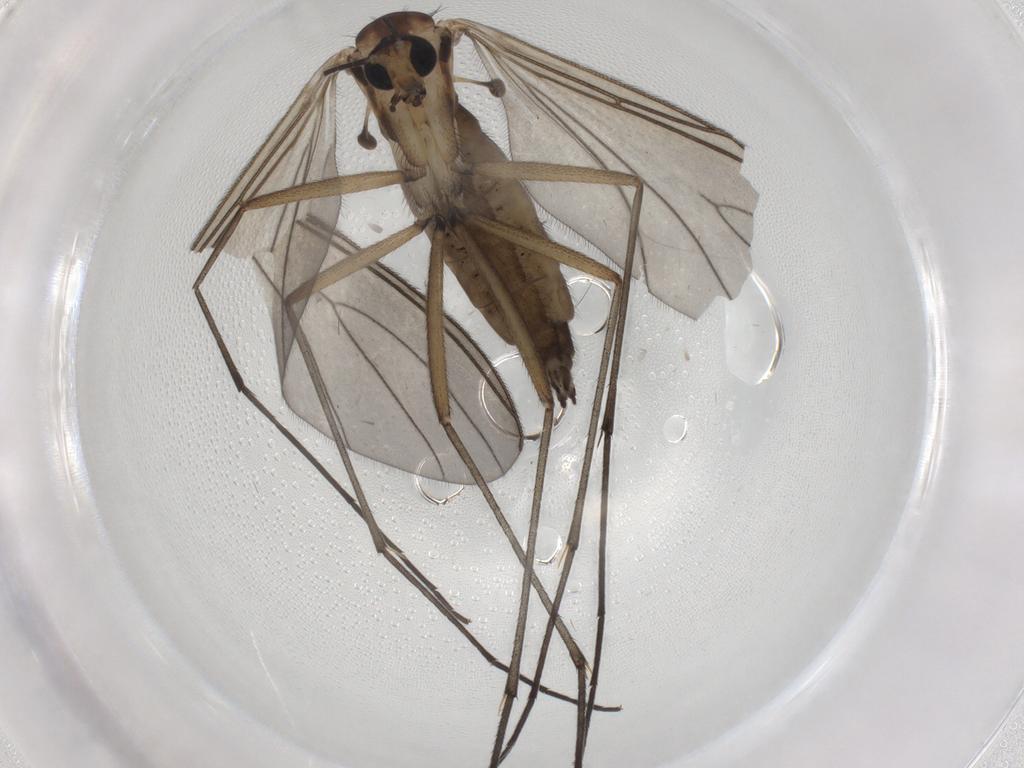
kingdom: Animalia
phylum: Arthropoda
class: Insecta
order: Diptera
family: Sciaridae
